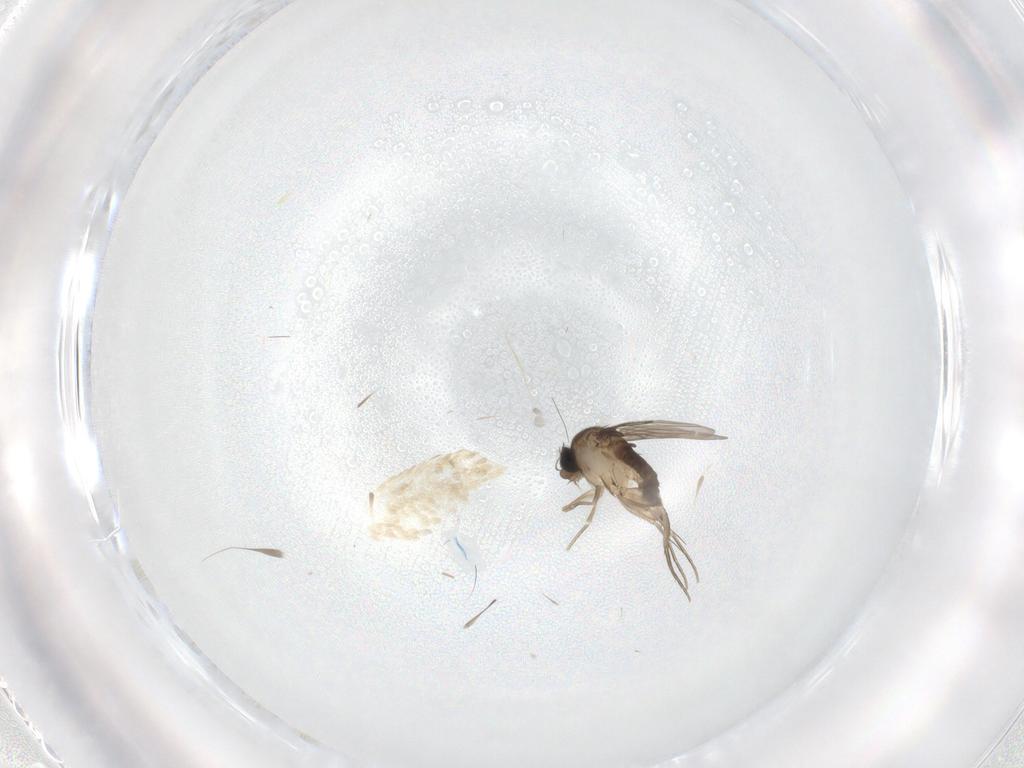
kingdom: Animalia
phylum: Arthropoda
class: Insecta
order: Diptera
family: Phoridae
